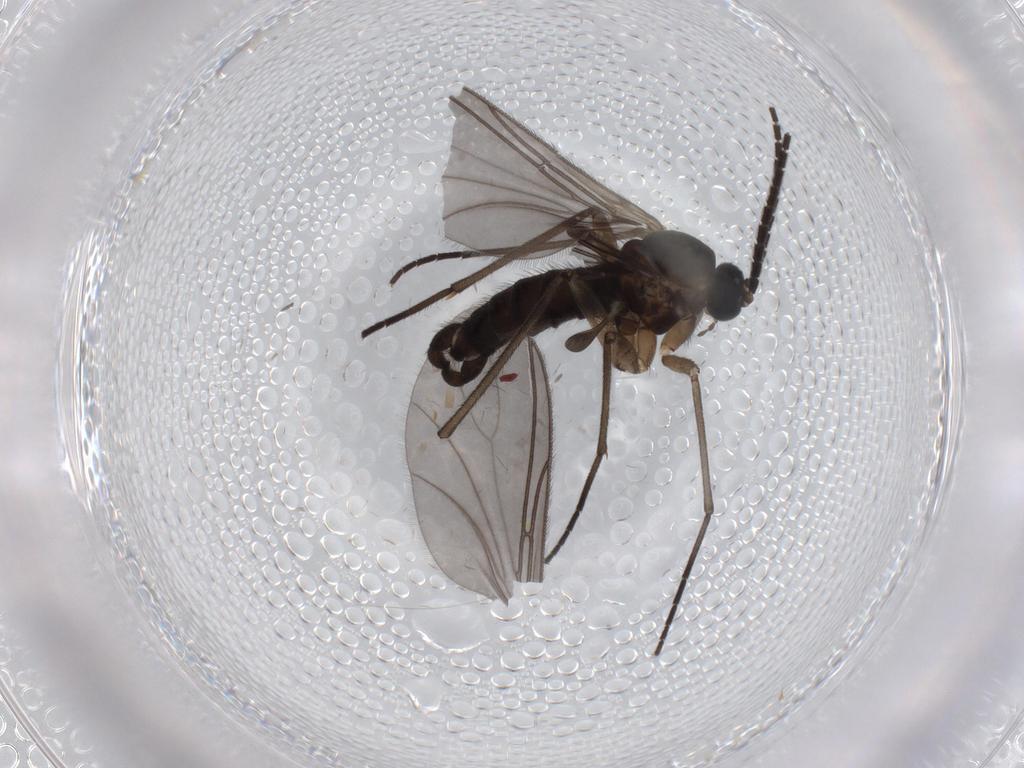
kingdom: Animalia
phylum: Arthropoda
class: Insecta
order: Diptera
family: Sciaridae
